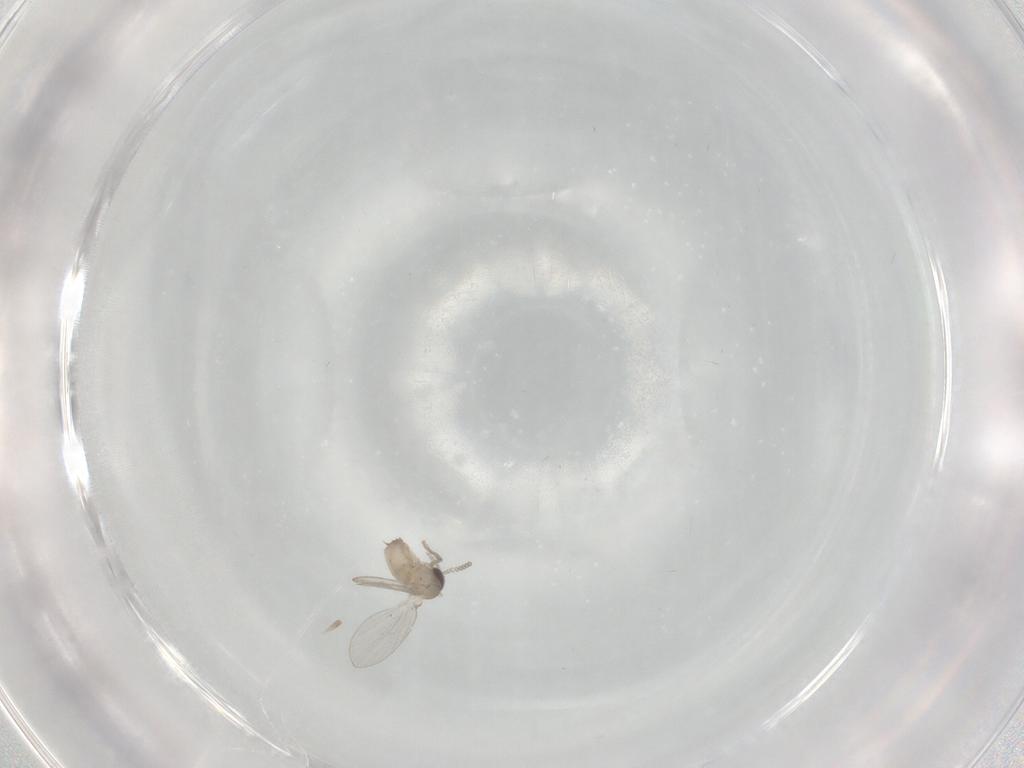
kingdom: Animalia
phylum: Arthropoda
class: Insecta
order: Diptera
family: Psychodidae
